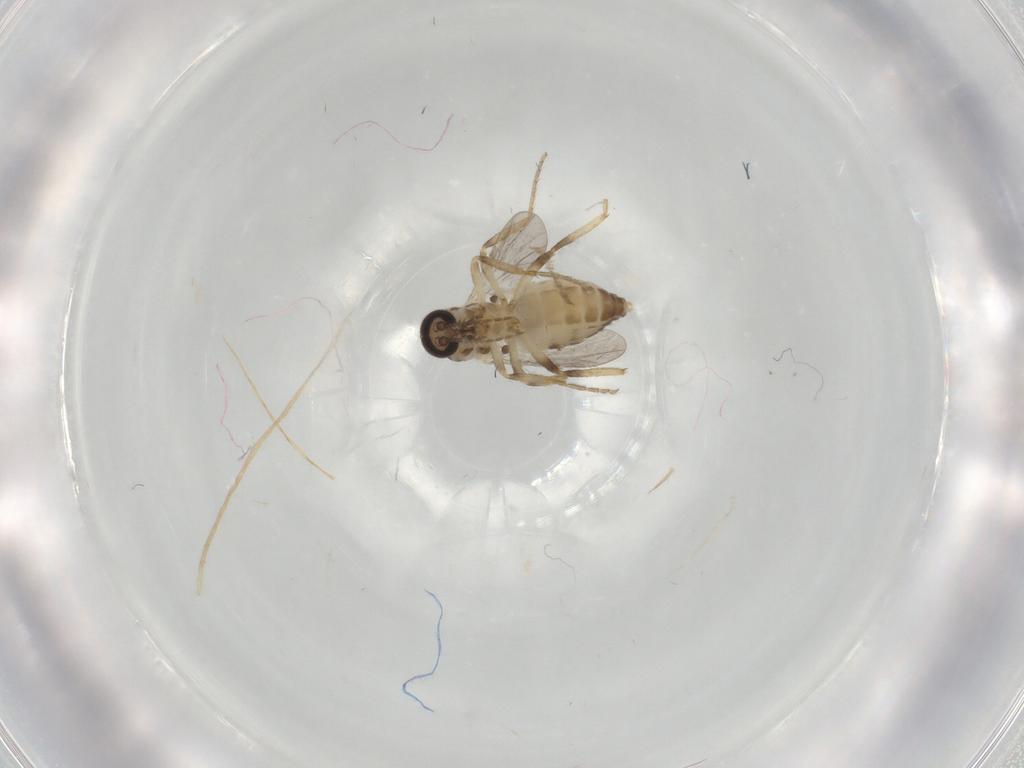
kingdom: Animalia
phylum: Arthropoda
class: Insecta
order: Diptera
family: Ceratopogonidae
